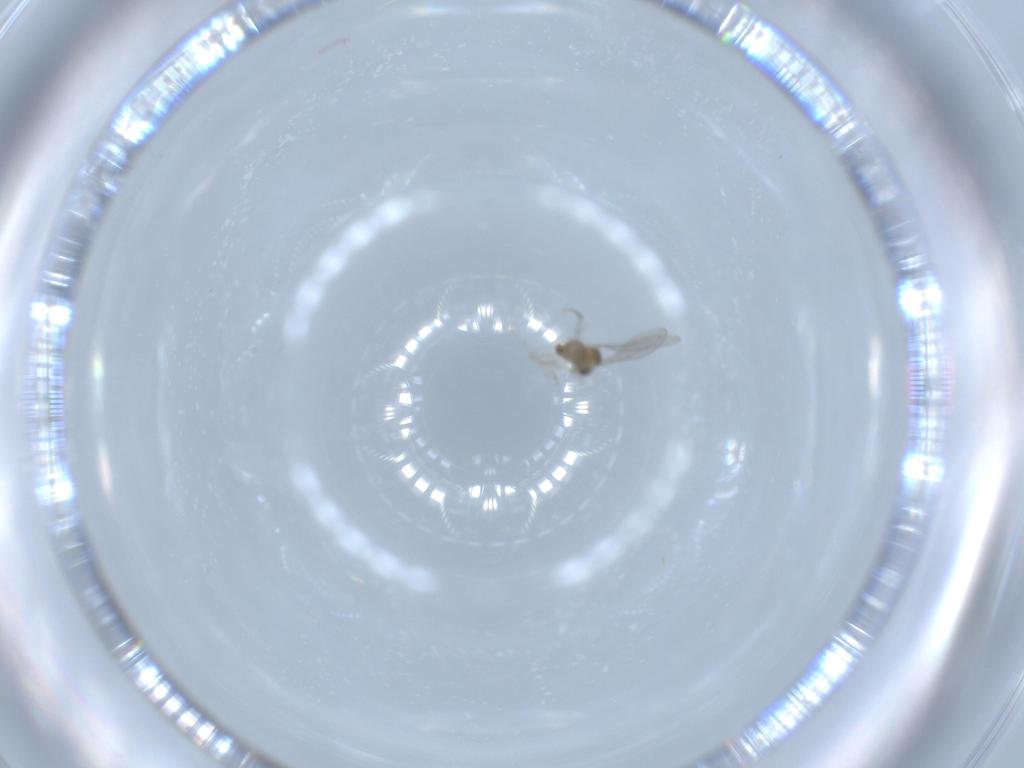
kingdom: Animalia
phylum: Arthropoda
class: Insecta
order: Diptera
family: Cecidomyiidae
